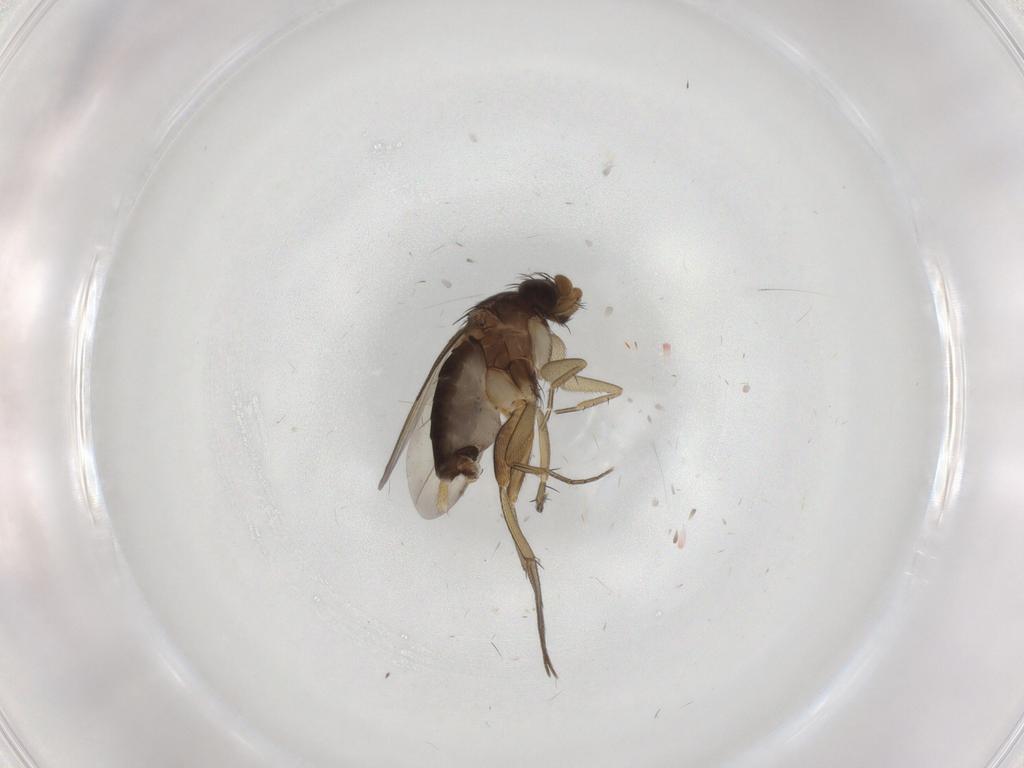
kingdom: Animalia
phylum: Arthropoda
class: Insecta
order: Diptera
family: Phoridae
